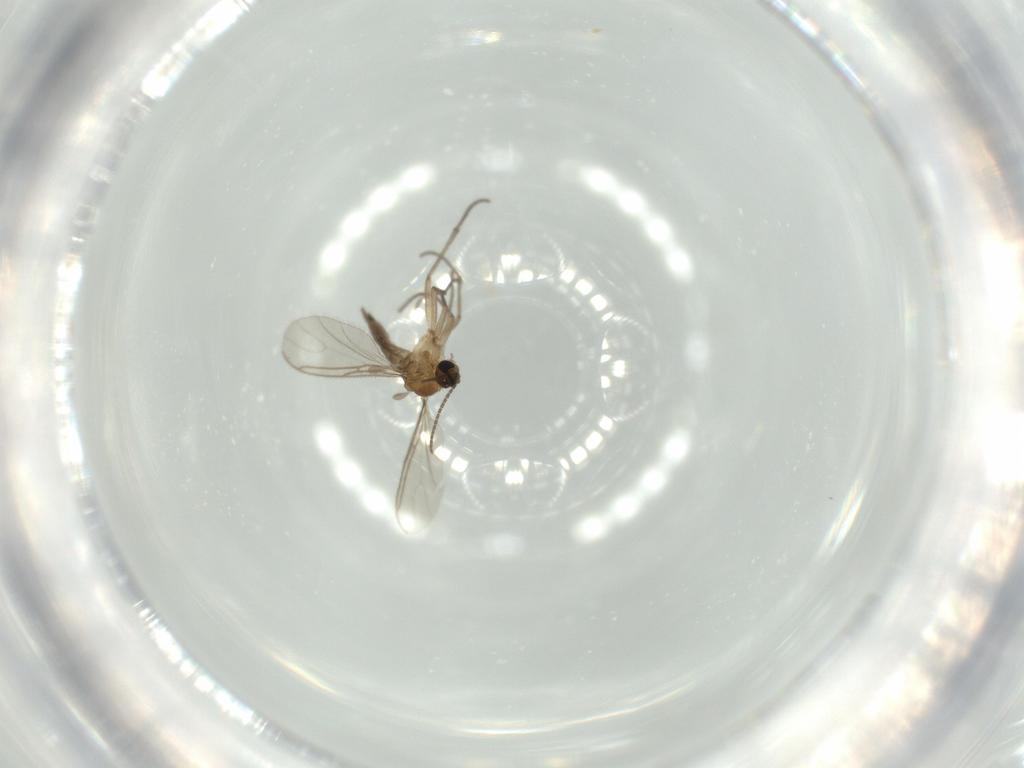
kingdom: Animalia
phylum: Arthropoda
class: Insecta
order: Diptera
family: Sciaridae
